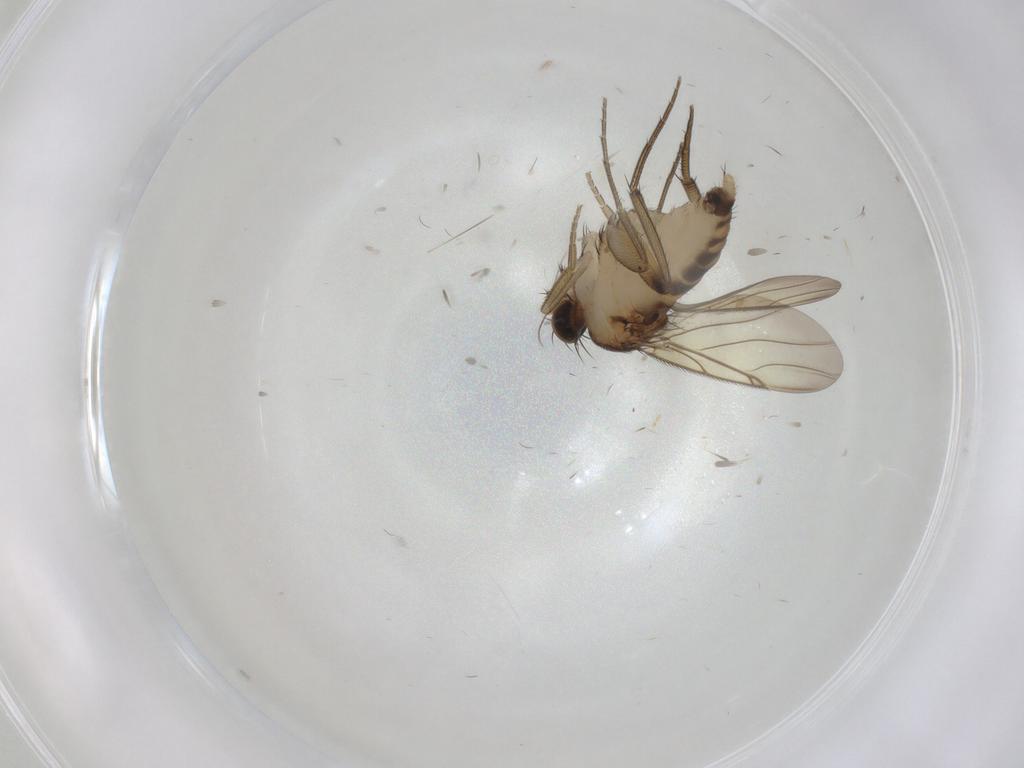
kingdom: Animalia
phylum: Arthropoda
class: Insecta
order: Diptera
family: Phoridae
